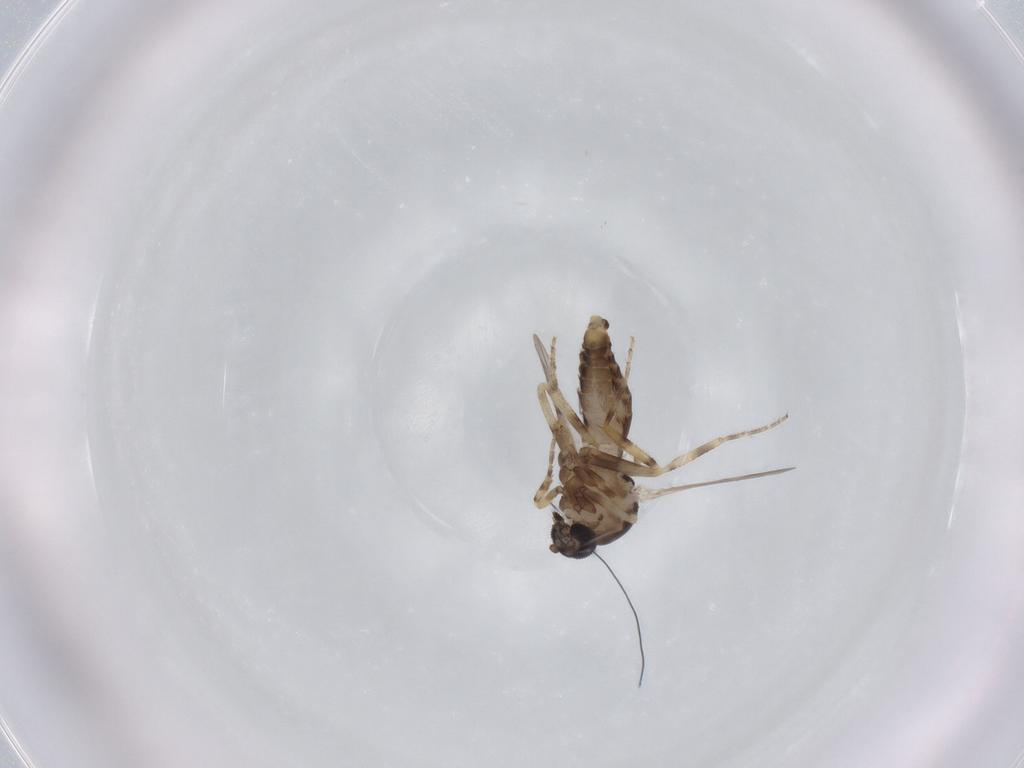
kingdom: Animalia
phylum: Arthropoda
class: Insecta
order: Diptera
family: Ceratopogonidae
